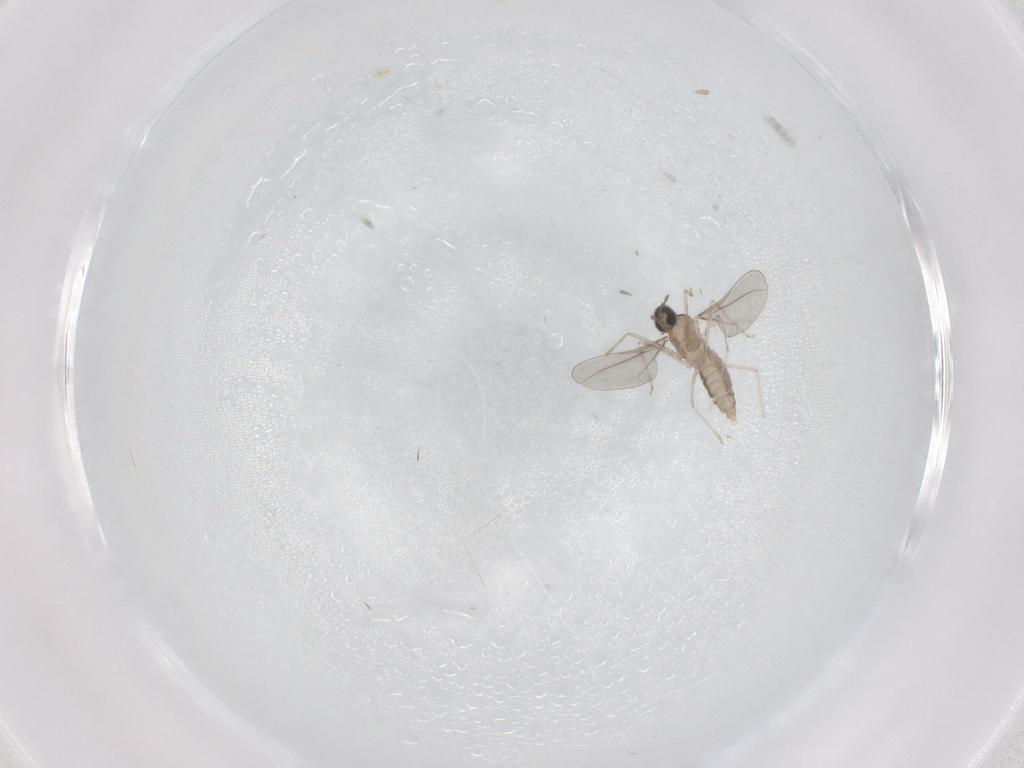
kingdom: Animalia
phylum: Arthropoda
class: Insecta
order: Diptera
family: Cecidomyiidae
